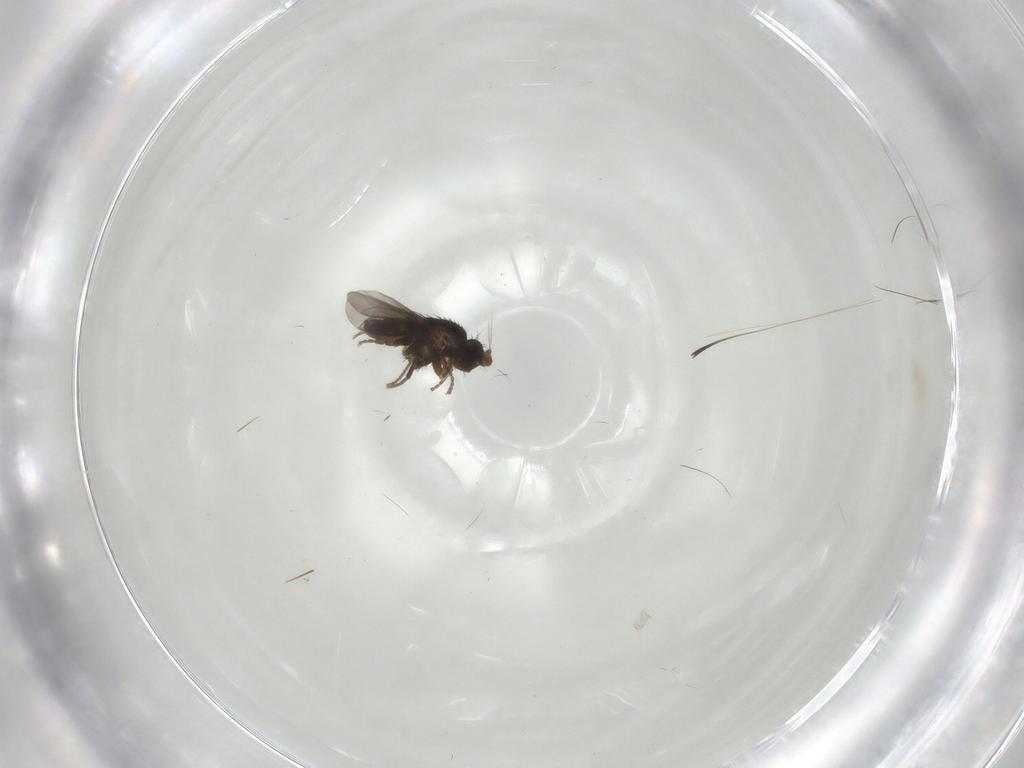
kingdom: Animalia
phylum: Arthropoda
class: Insecta
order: Diptera
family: Sphaeroceridae
